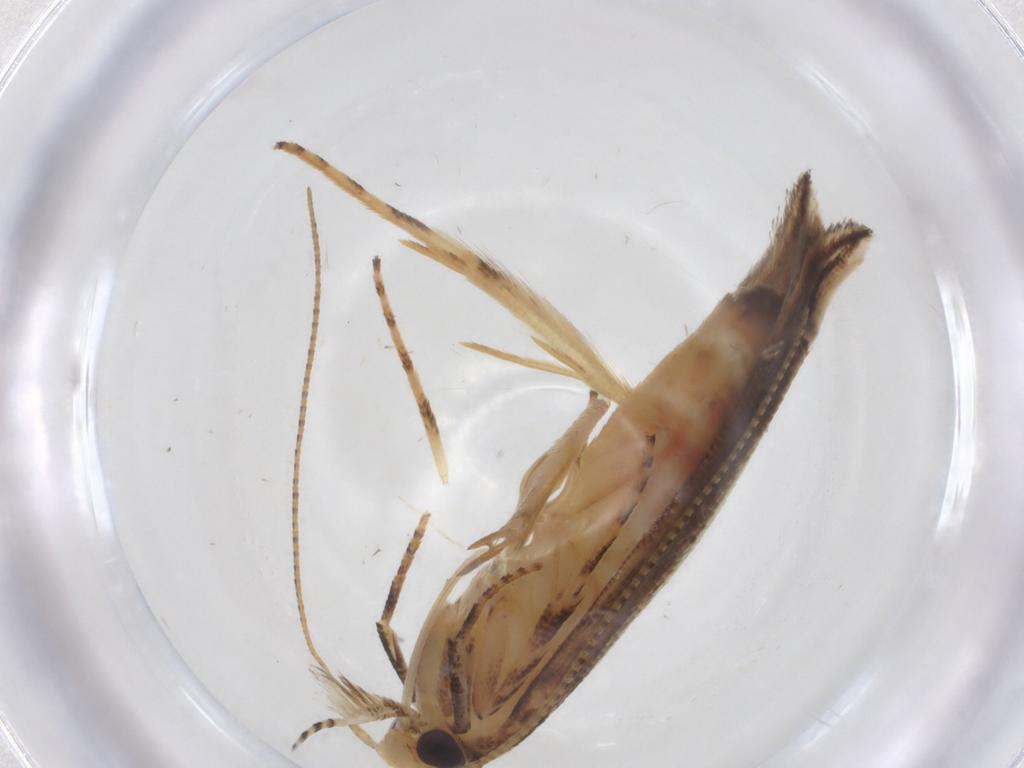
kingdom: Animalia
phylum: Arthropoda
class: Insecta
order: Lepidoptera
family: Momphidae
